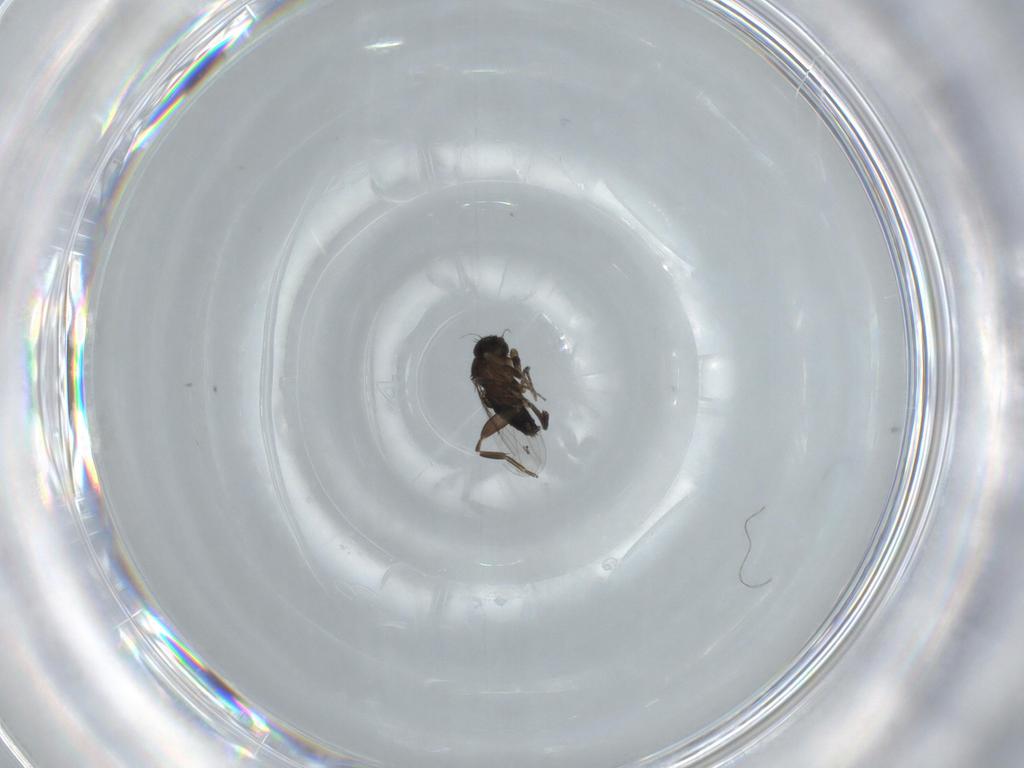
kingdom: Animalia
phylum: Arthropoda
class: Insecta
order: Diptera
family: Phoridae
